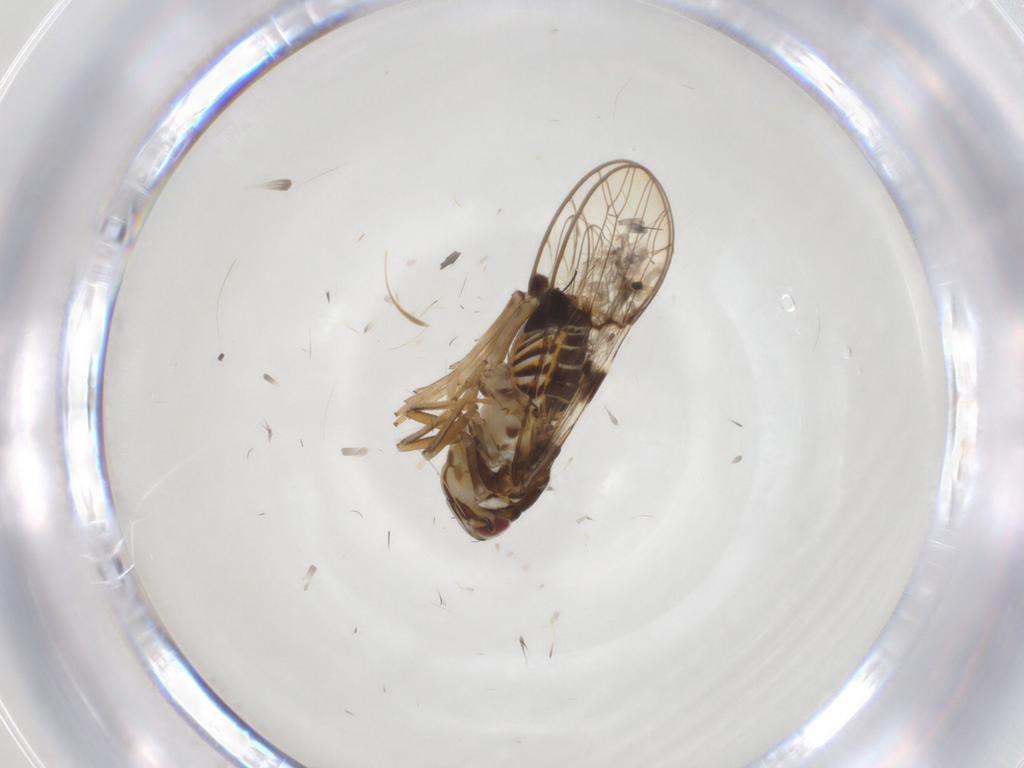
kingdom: Animalia
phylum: Arthropoda
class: Insecta
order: Hemiptera
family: Delphacidae
